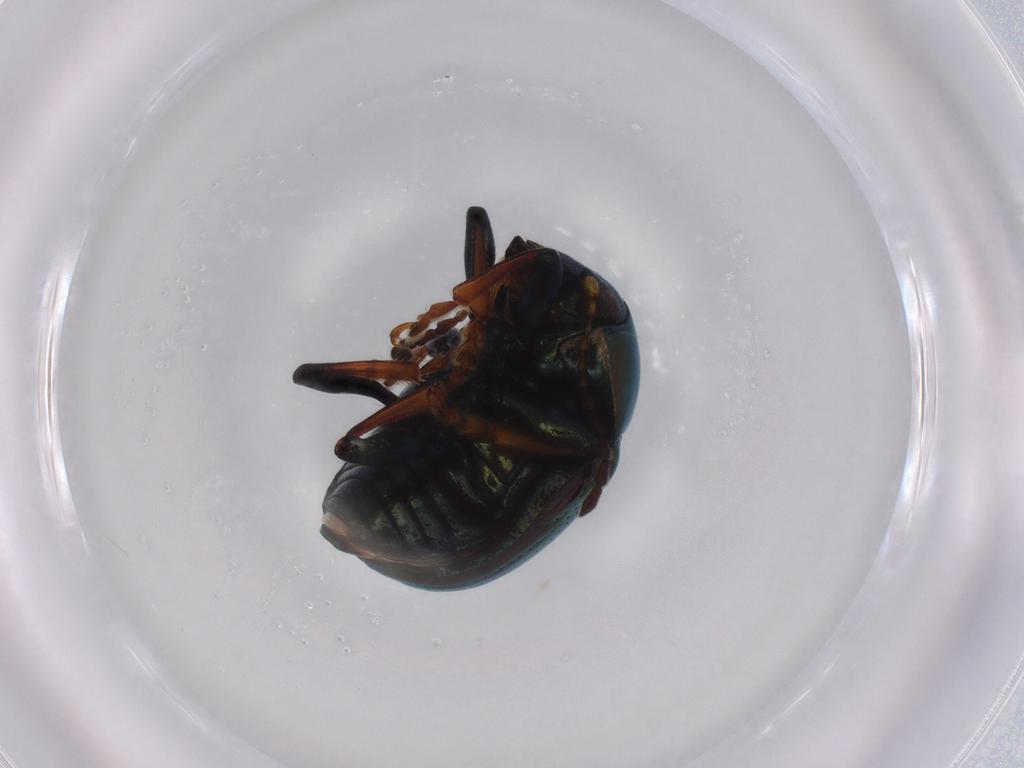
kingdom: Animalia
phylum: Arthropoda
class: Insecta
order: Coleoptera
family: Chrysomelidae
